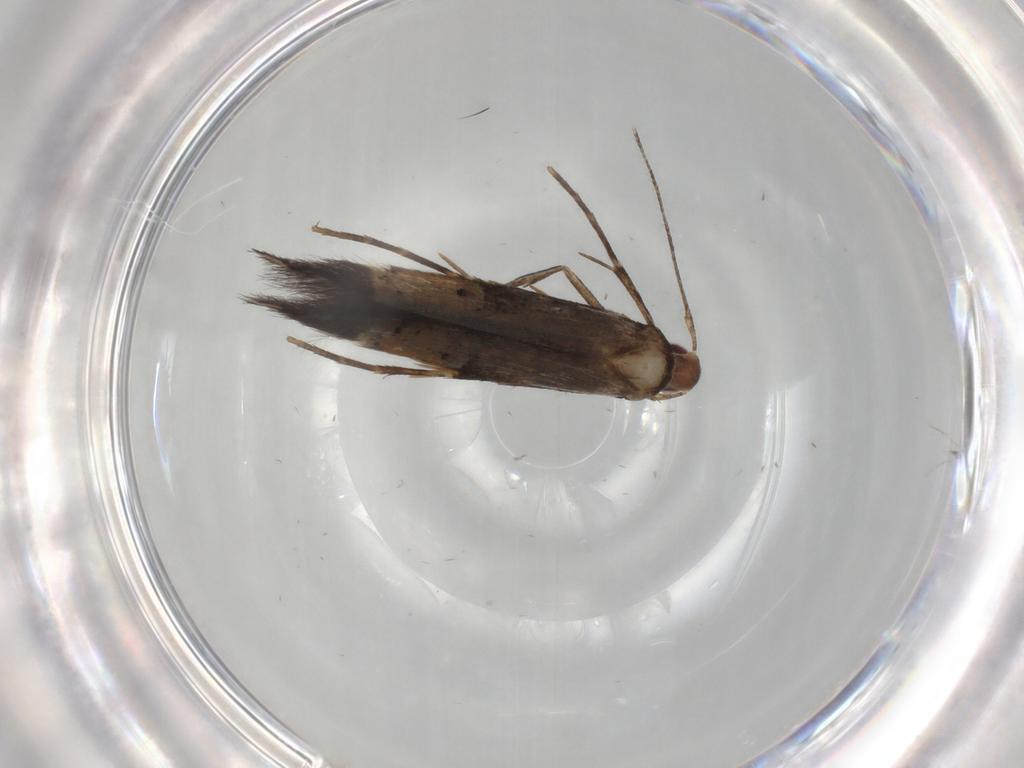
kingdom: Animalia
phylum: Arthropoda
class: Insecta
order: Lepidoptera
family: Cosmopterigidae
